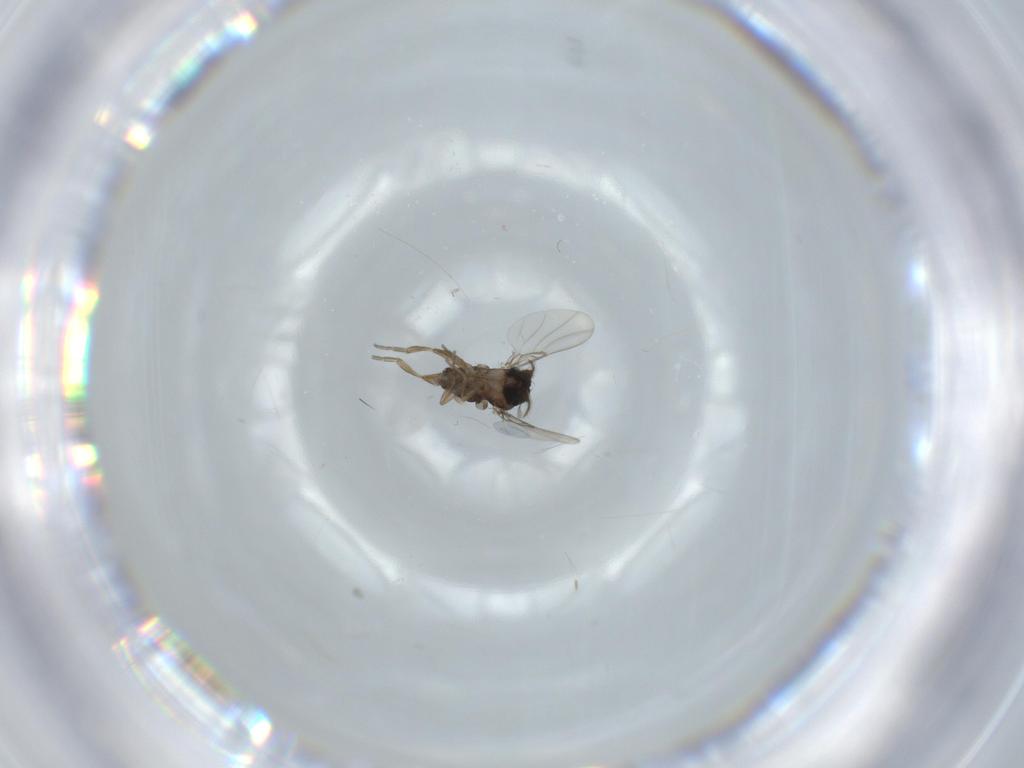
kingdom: Animalia
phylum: Arthropoda
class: Insecta
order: Diptera
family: Phoridae
